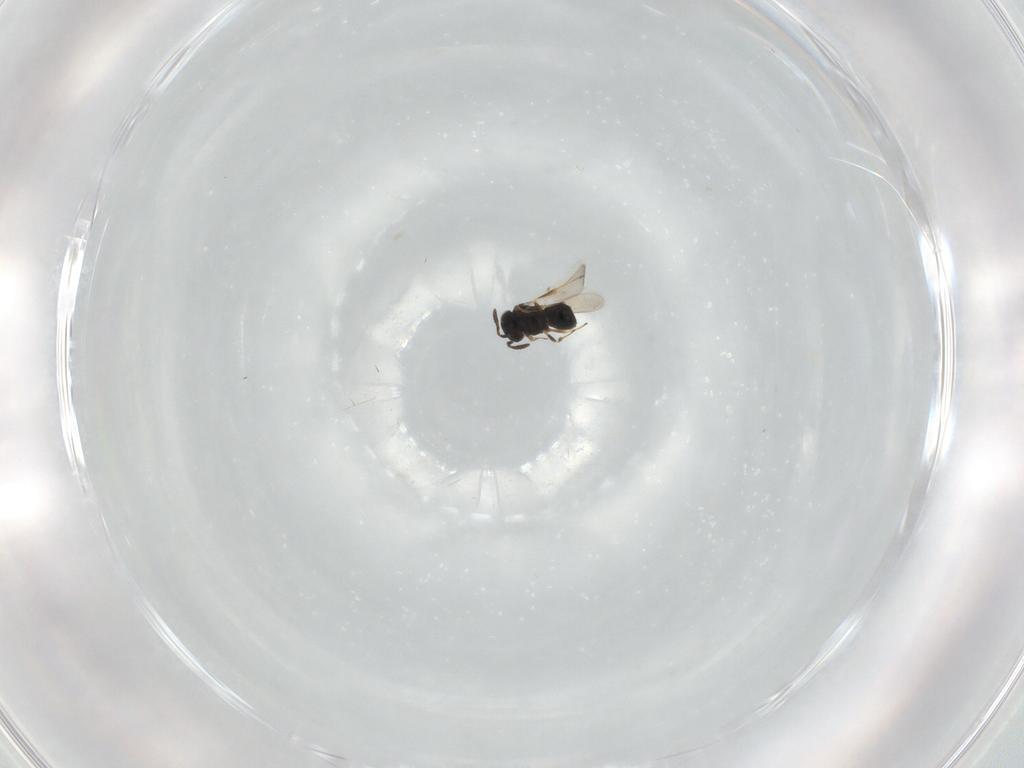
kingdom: Animalia
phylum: Arthropoda
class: Insecta
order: Hymenoptera
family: Scelionidae
